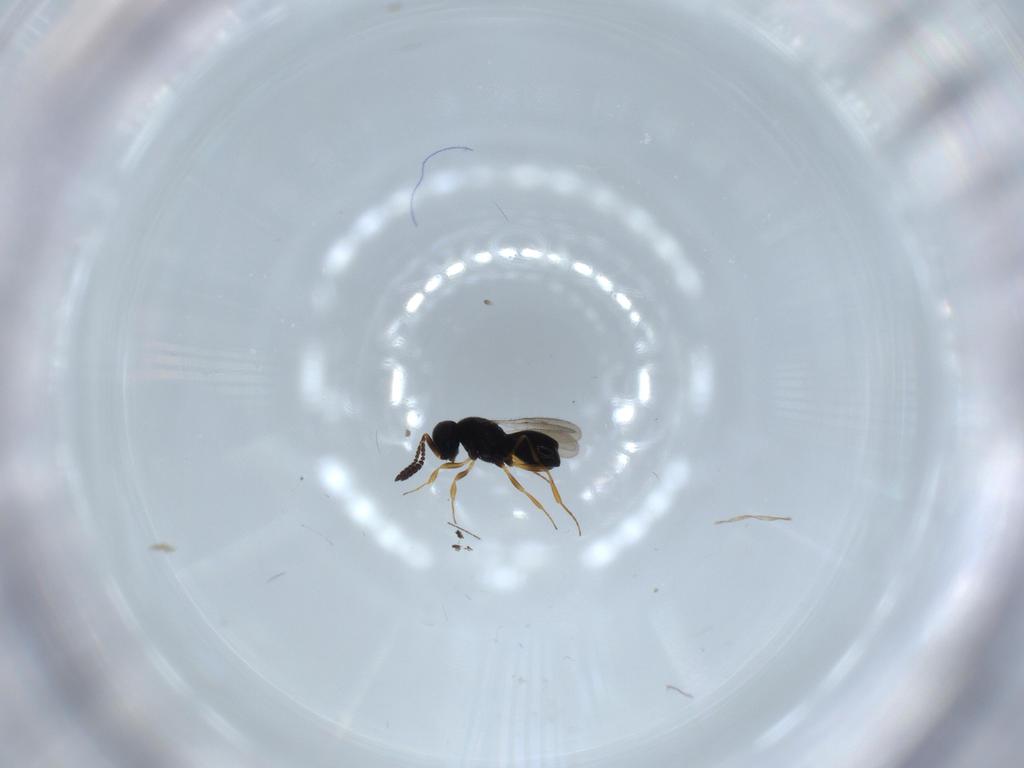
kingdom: Animalia
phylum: Arthropoda
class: Insecta
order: Hymenoptera
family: Scelionidae
